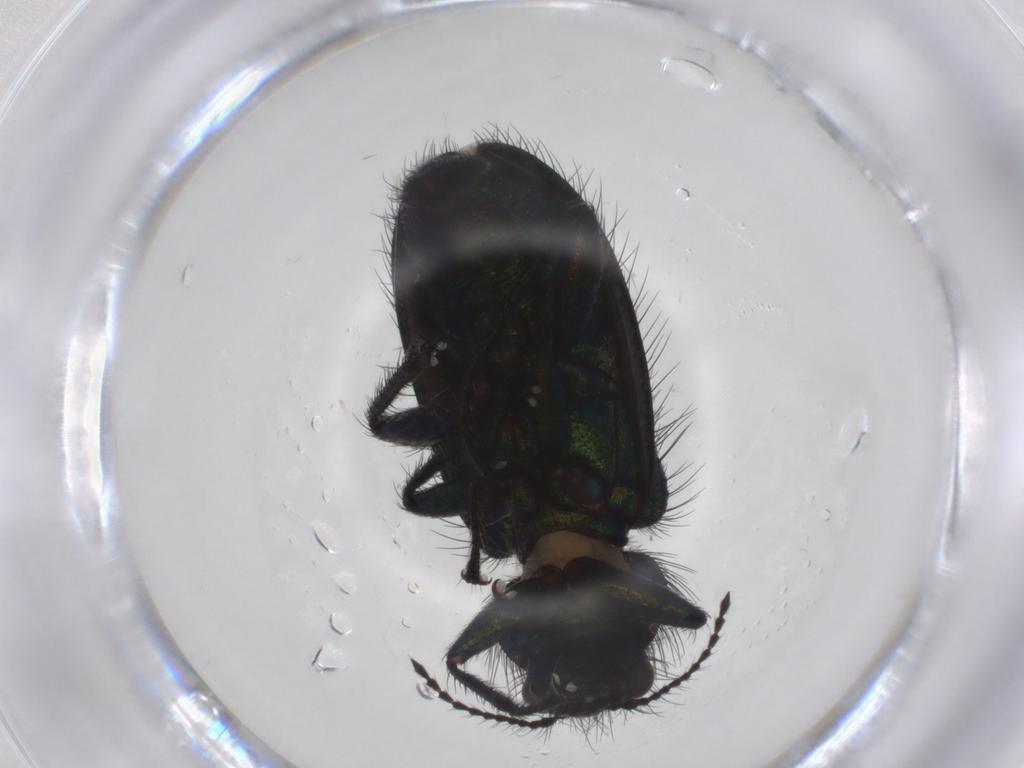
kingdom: Animalia
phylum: Arthropoda
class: Insecta
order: Coleoptera
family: Melyridae
